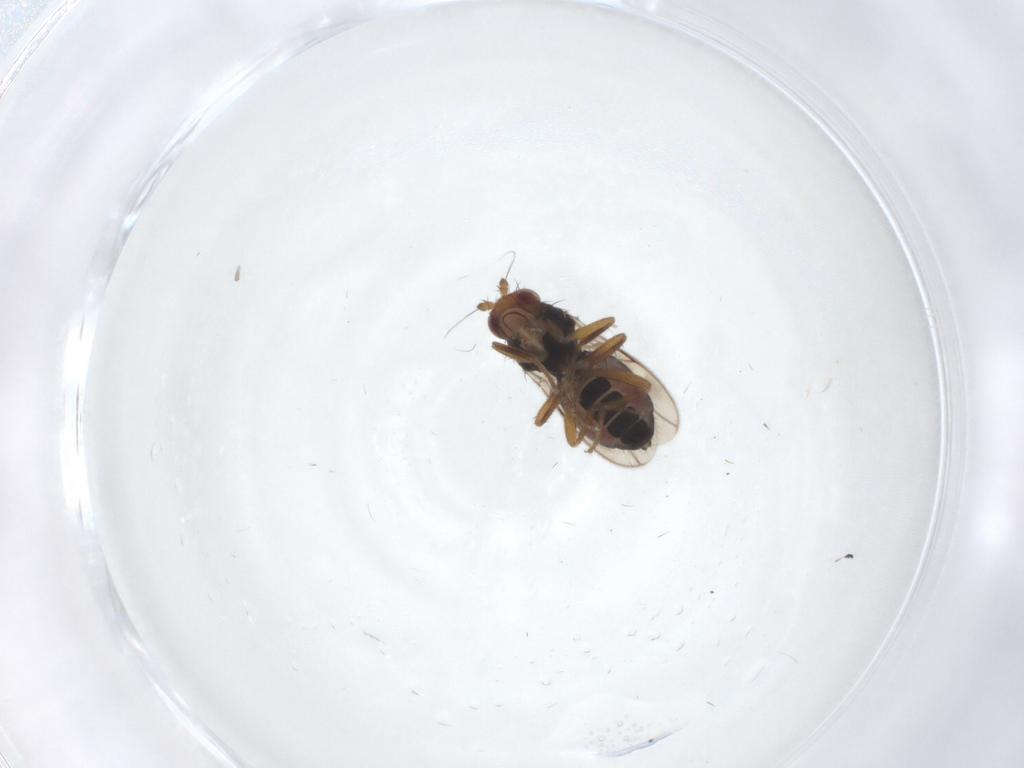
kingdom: Animalia
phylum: Arthropoda
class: Insecta
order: Diptera
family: Sphaeroceridae
